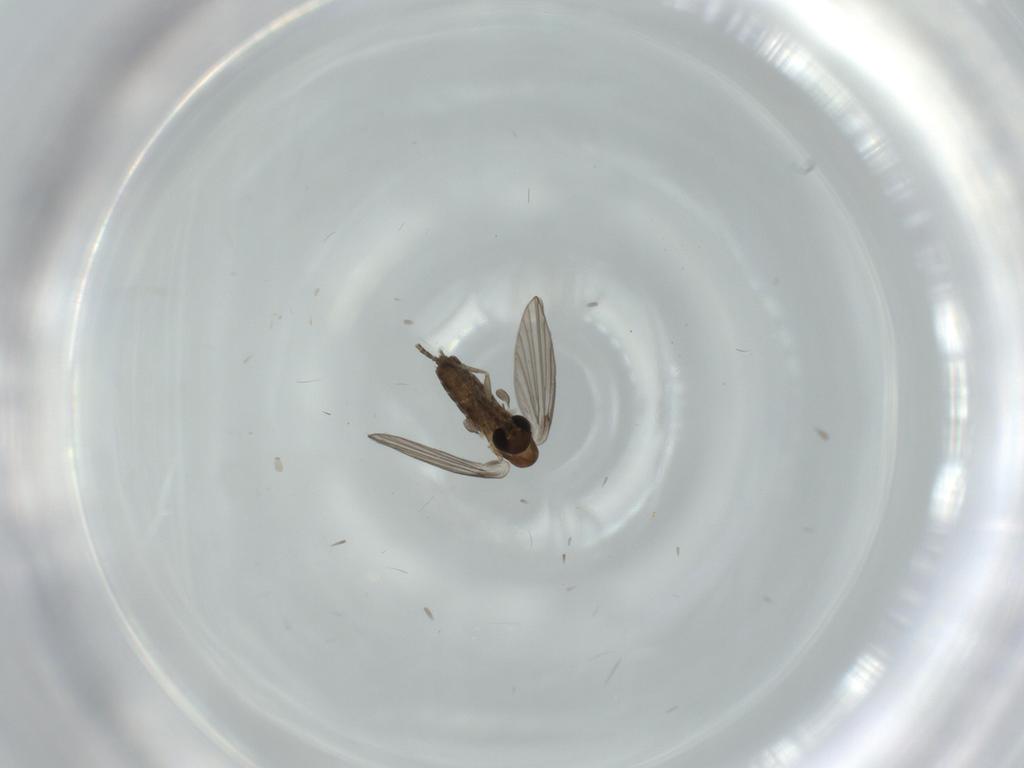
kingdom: Animalia
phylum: Arthropoda
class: Insecta
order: Diptera
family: Psychodidae
